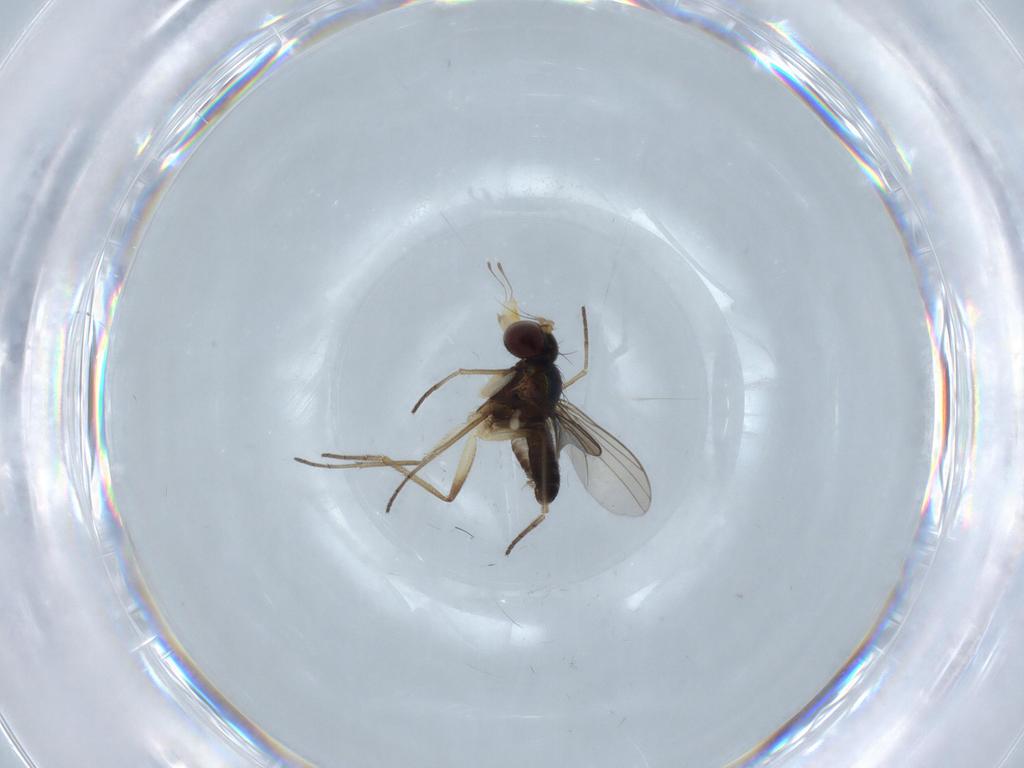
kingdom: Animalia
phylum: Arthropoda
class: Insecta
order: Diptera
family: Dolichopodidae
